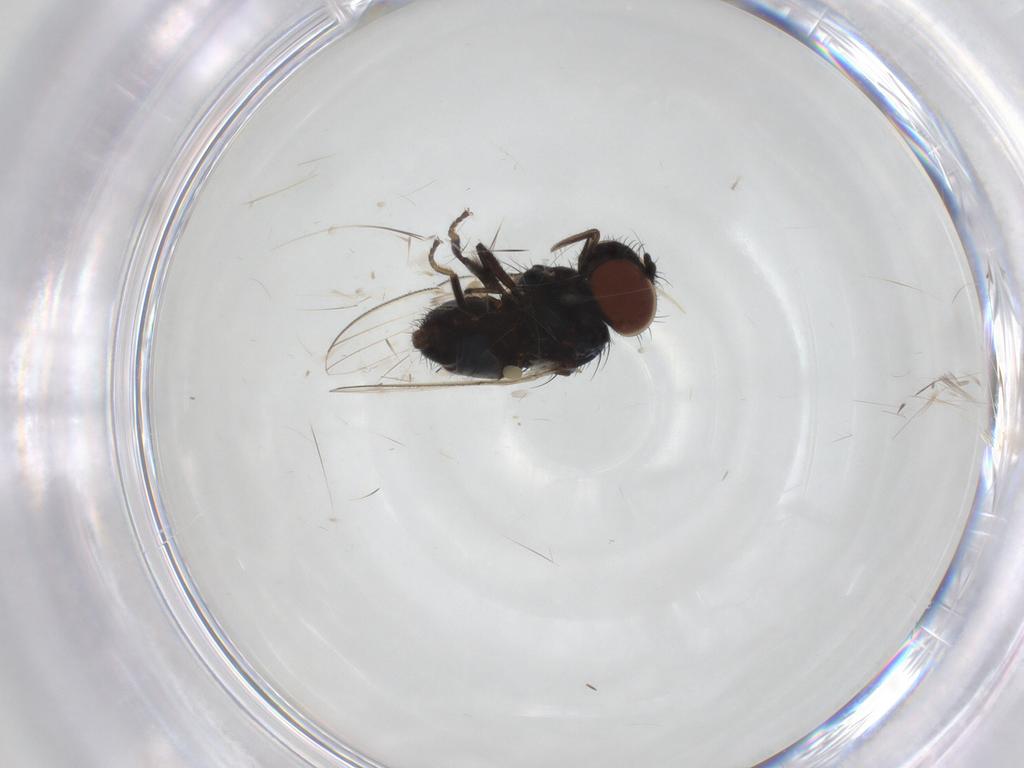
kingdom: Animalia
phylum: Arthropoda
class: Insecta
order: Diptera
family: Milichiidae
